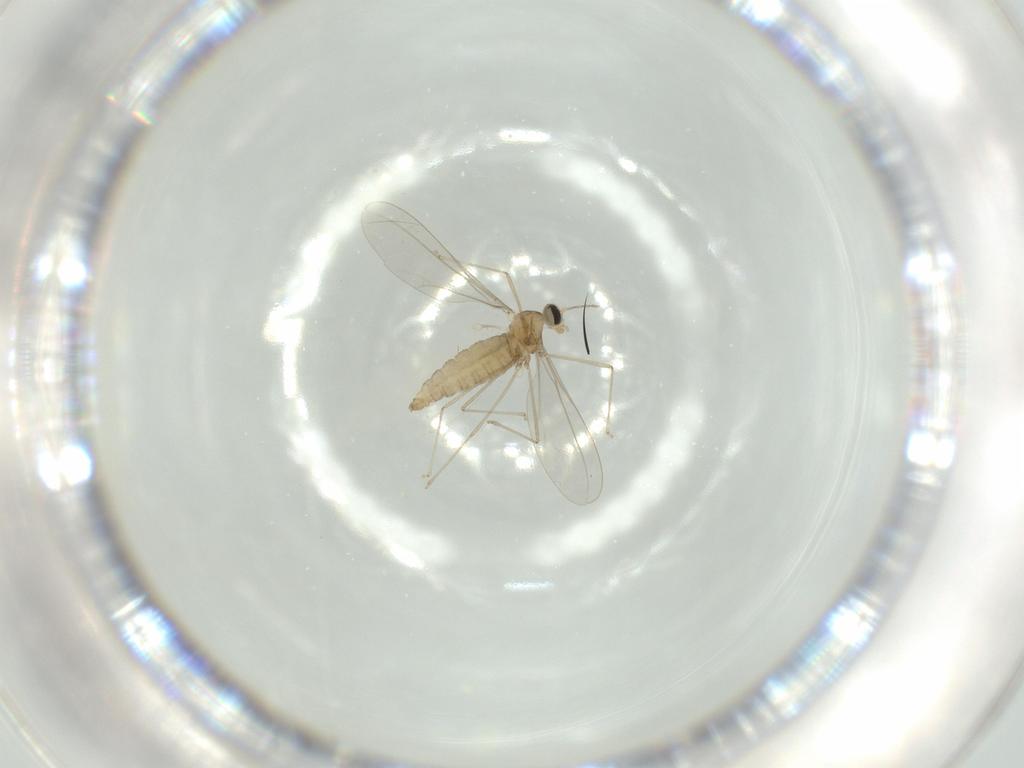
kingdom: Animalia
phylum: Arthropoda
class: Insecta
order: Diptera
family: Cecidomyiidae
